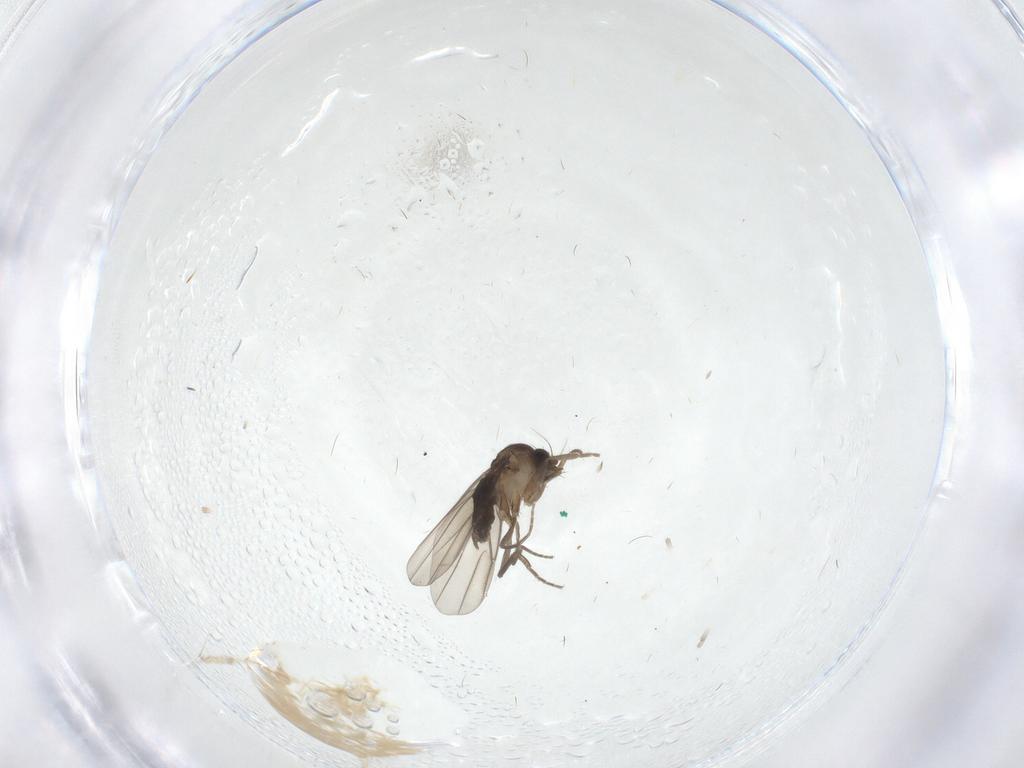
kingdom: Animalia
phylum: Arthropoda
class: Insecta
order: Diptera
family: Phoridae
